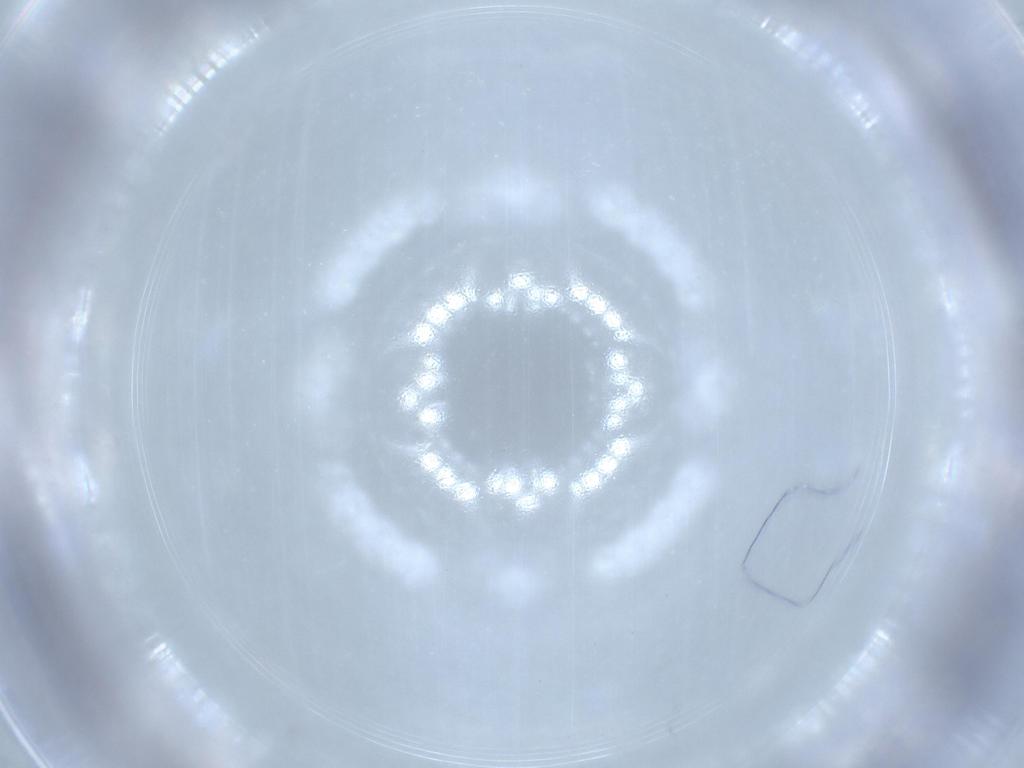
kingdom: Animalia
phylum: Arthropoda
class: Insecta
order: Coleoptera
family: Chrysomelidae
